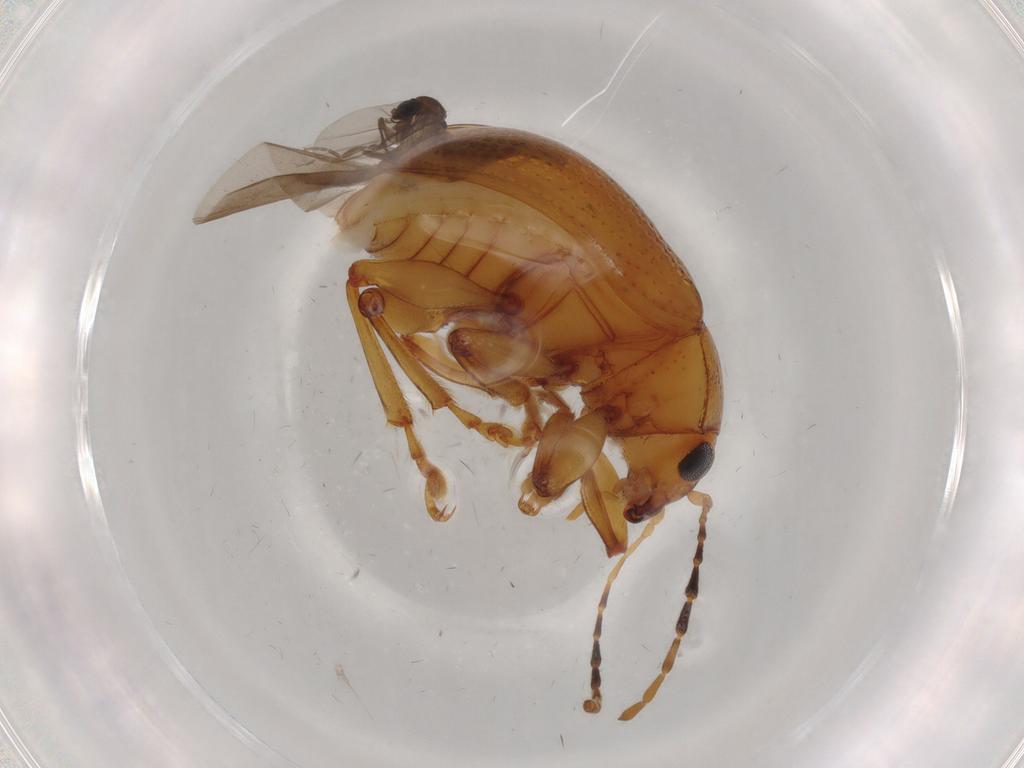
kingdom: Animalia
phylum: Arthropoda
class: Insecta
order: Coleoptera
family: Chrysomelidae
